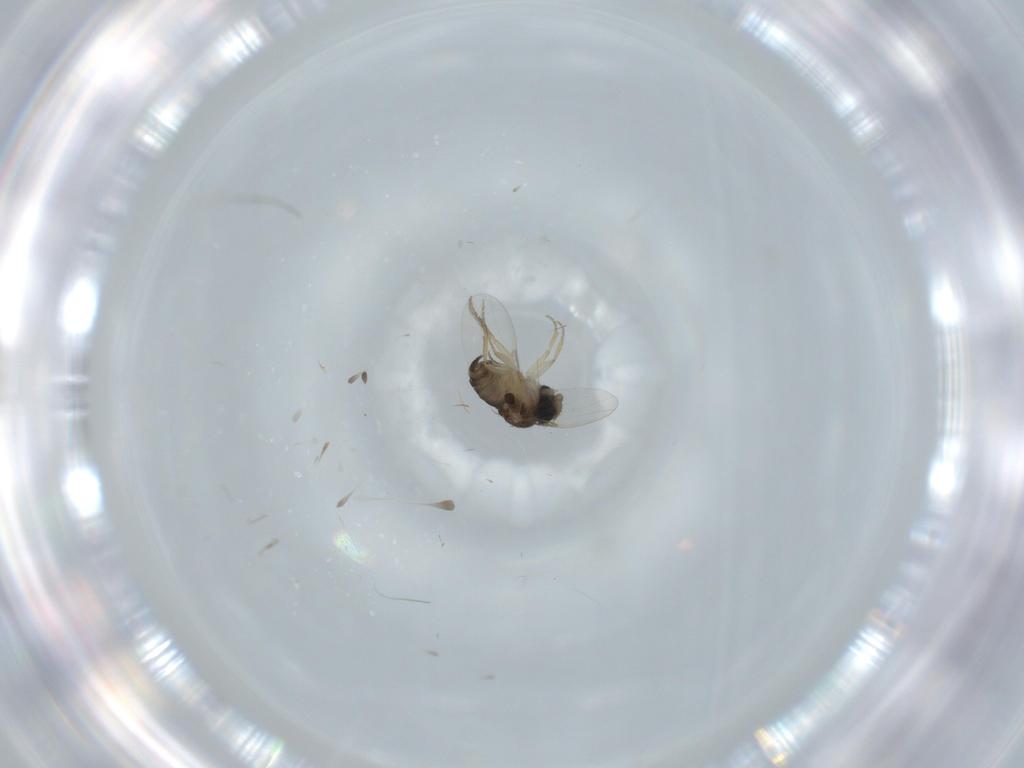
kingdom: Animalia
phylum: Arthropoda
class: Insecta
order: Diptera
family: Phoridae
